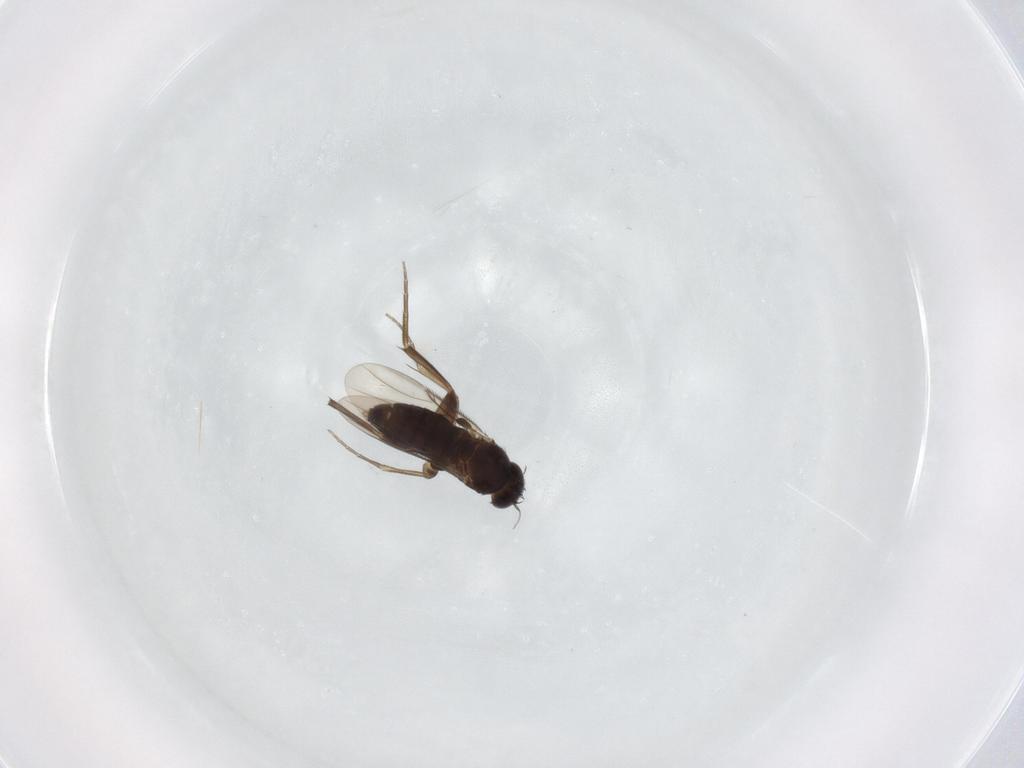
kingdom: Animalia
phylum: Arthropoda
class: Insecta
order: Diptera
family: Phoridae
